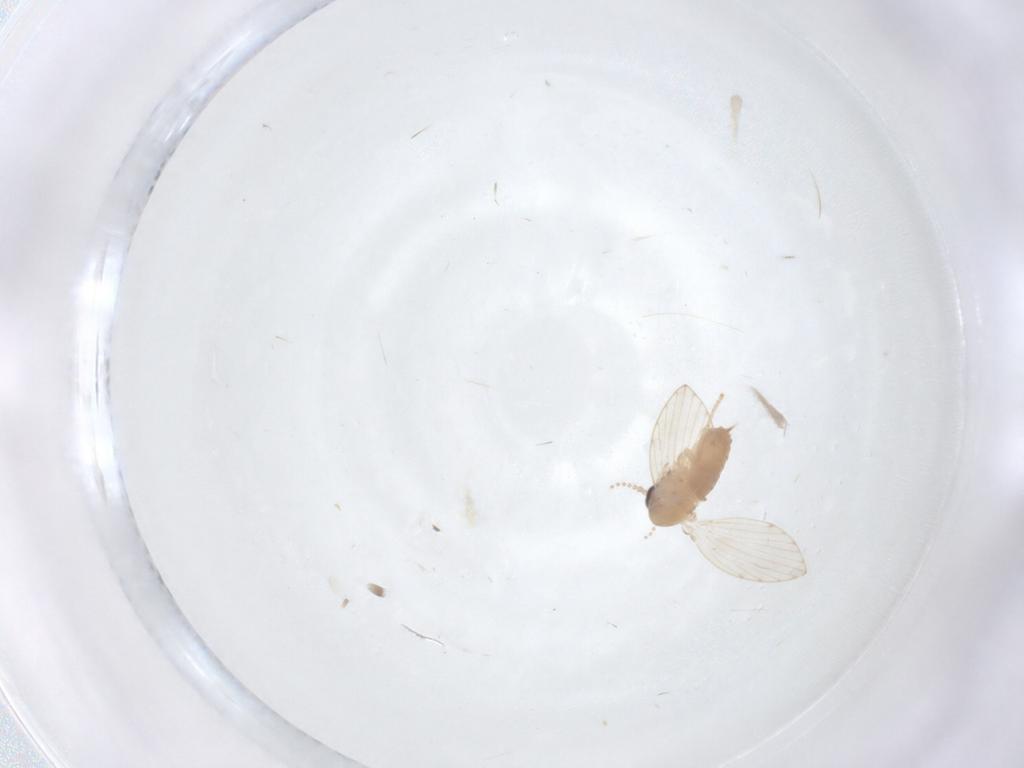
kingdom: Animalia
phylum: Arthropoda
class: Insecta
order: Diptera
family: Psychodidae
